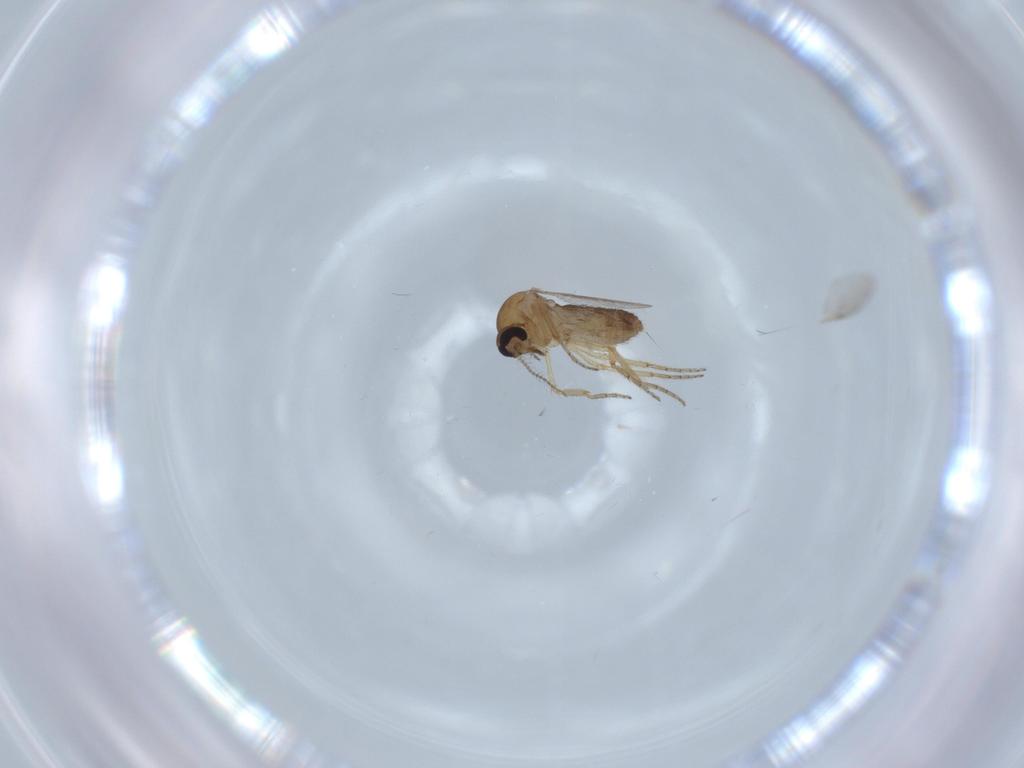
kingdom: Animalia
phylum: Arthropoda
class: Insecta
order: Diptera
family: Ceratopogonidae
